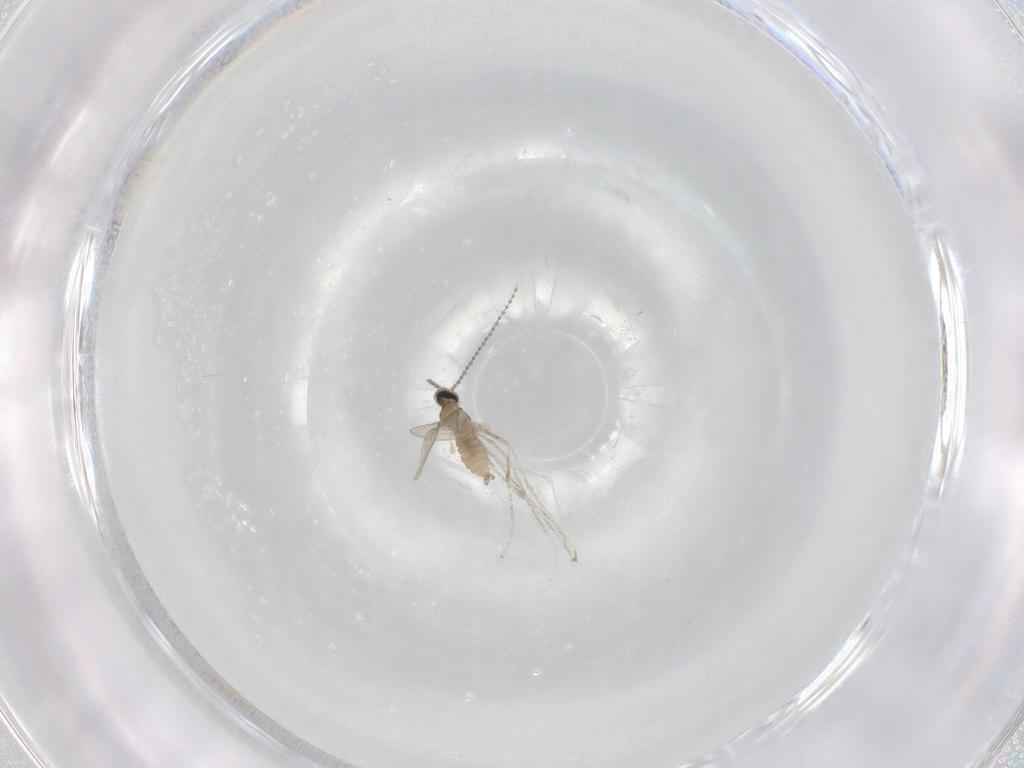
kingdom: Animalia
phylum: Arthropoda
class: Insecta
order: Diptera
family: Cecidomyiidae
